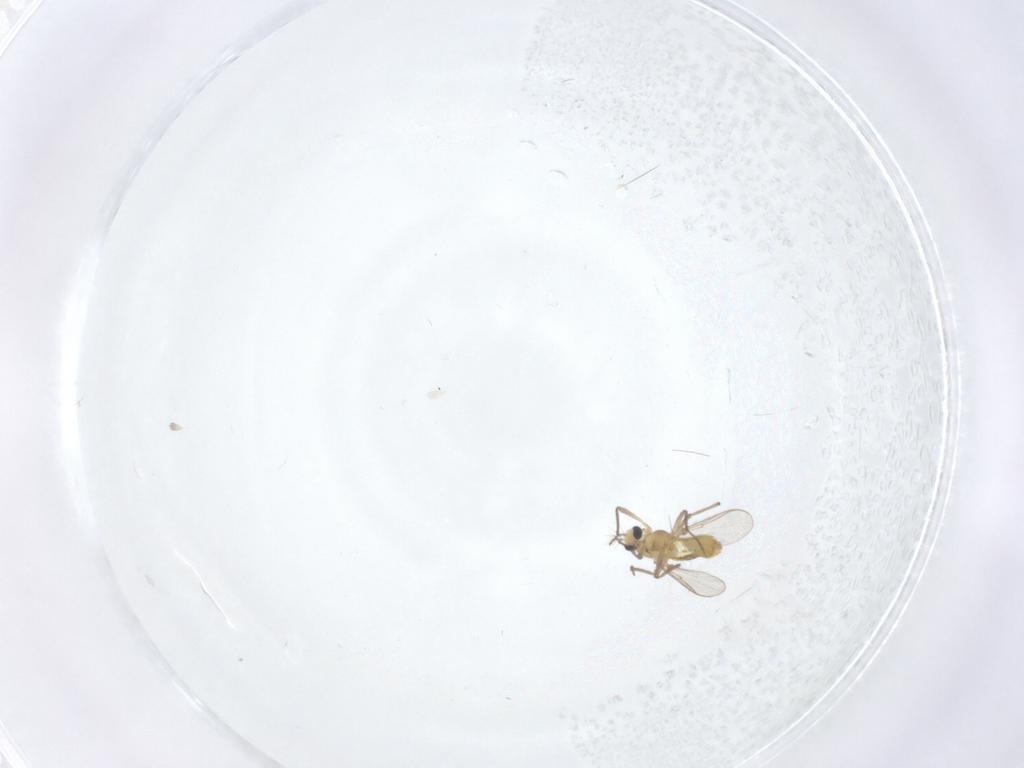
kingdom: Animalia
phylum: Arthropoda
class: Insecta
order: Diptera
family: Chironomidae
